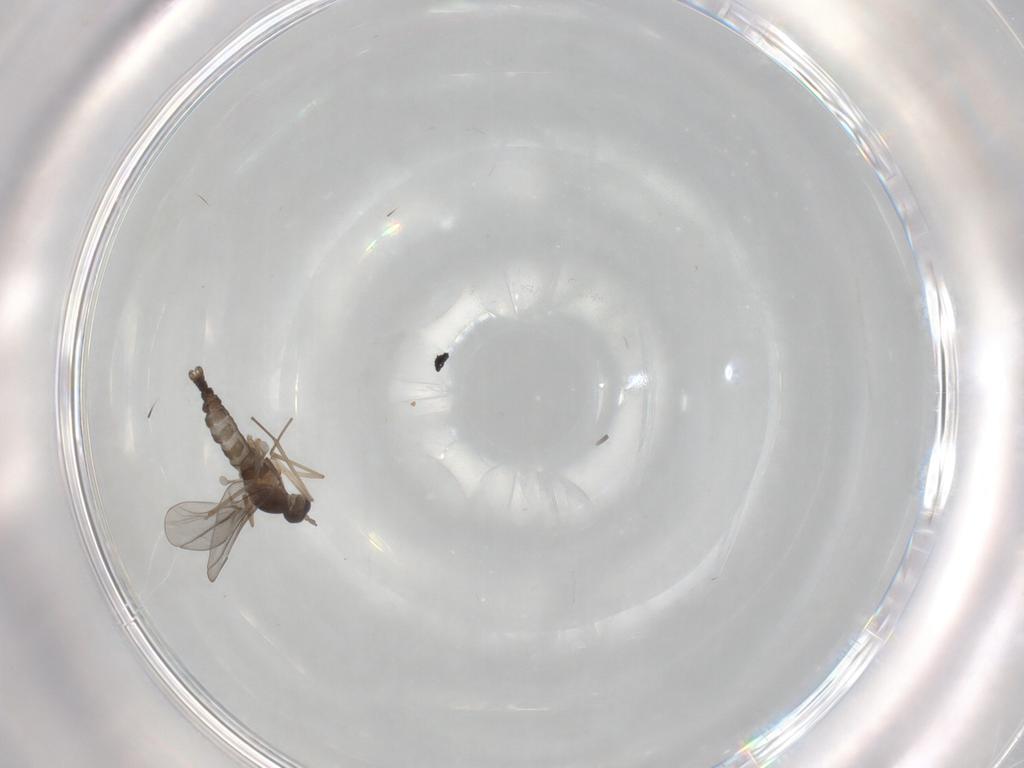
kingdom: Animalia
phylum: Arthropoda
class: Insecta
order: Diptera
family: Cecidomyiidae
